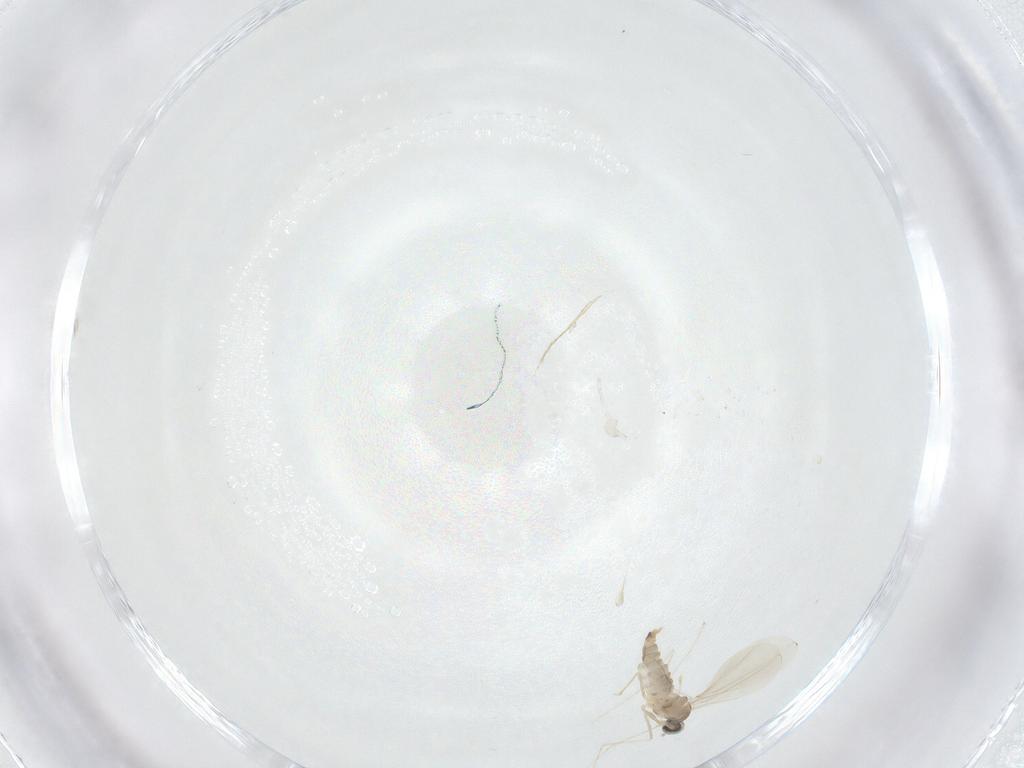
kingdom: Animalia
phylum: Arthropoda
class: Insecta
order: Diptera
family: Cecidomyiidae
